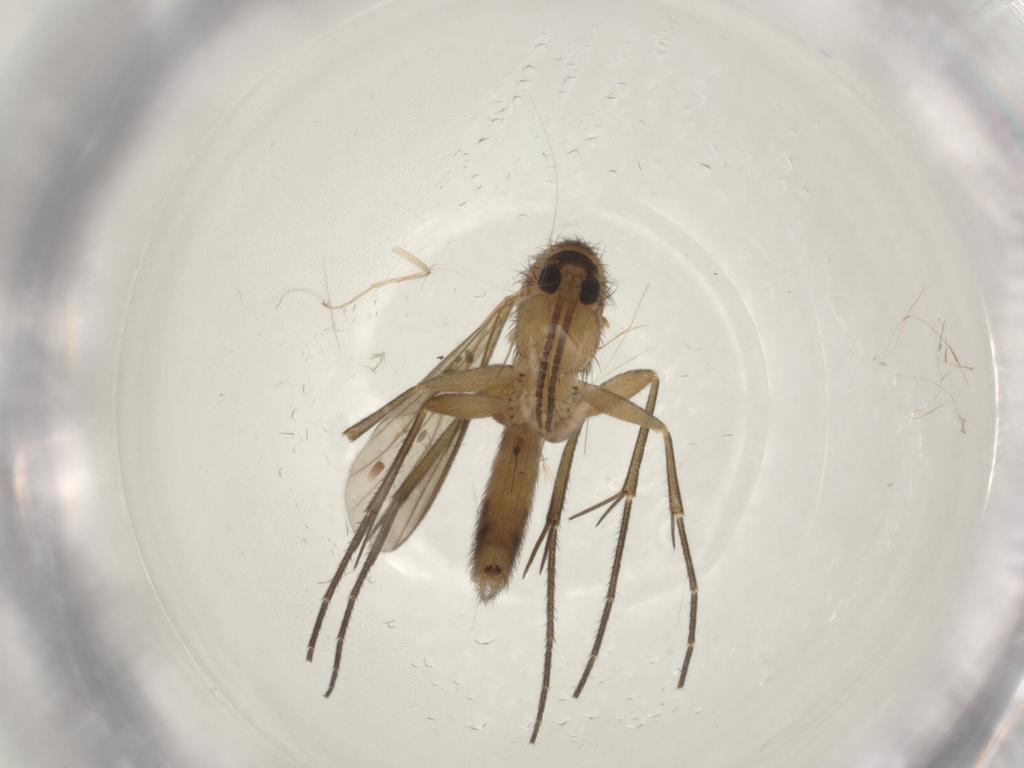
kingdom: Animalia
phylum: Arthropoda
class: Insecta
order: Diptera
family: Mycetophilidae
